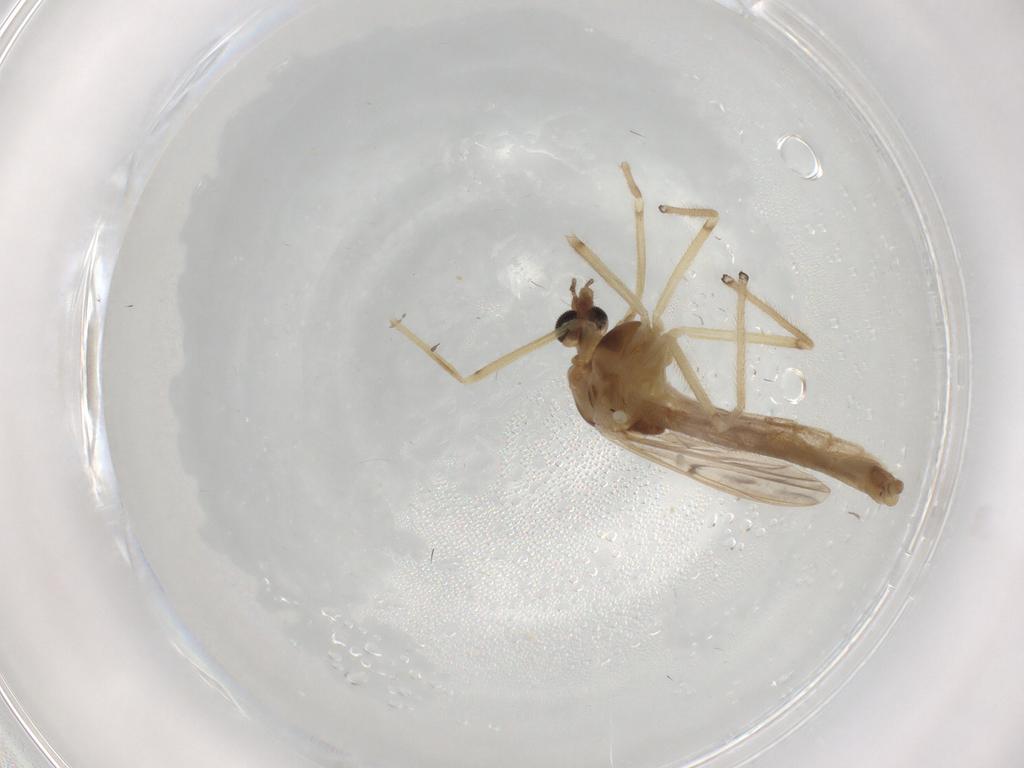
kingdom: Animalia
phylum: Arthropoda
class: Insecta
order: Diptera
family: Chironomidae
